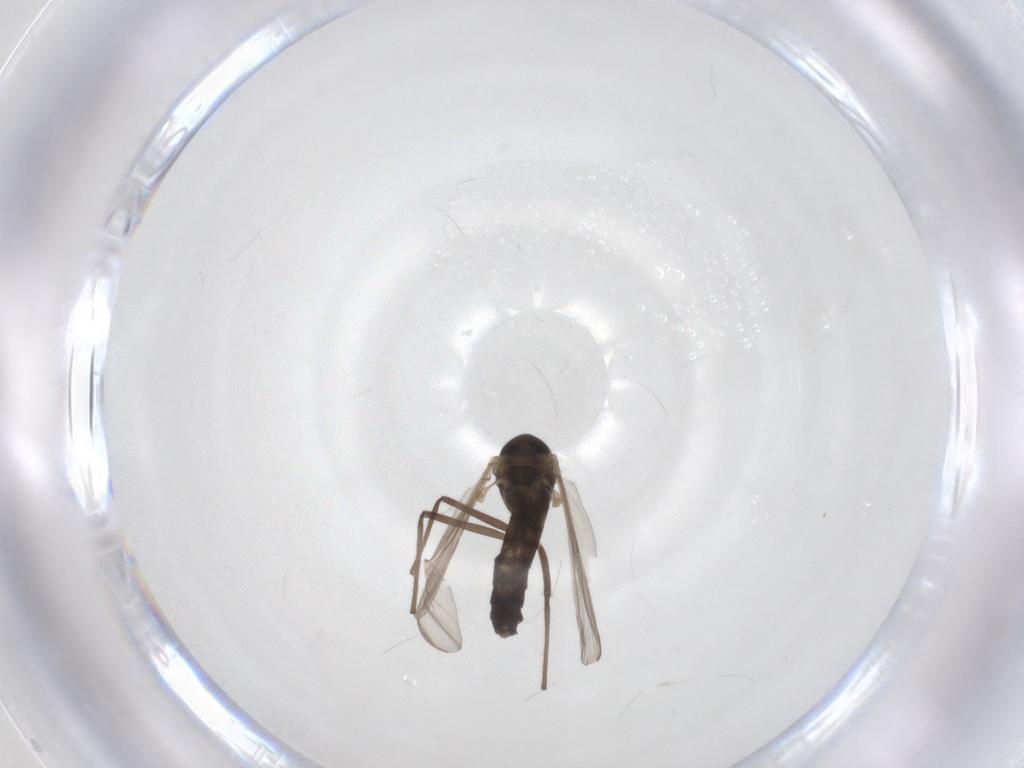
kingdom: Animalia
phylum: Arthropoda
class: Insecta
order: Diptera
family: Chironomidae
